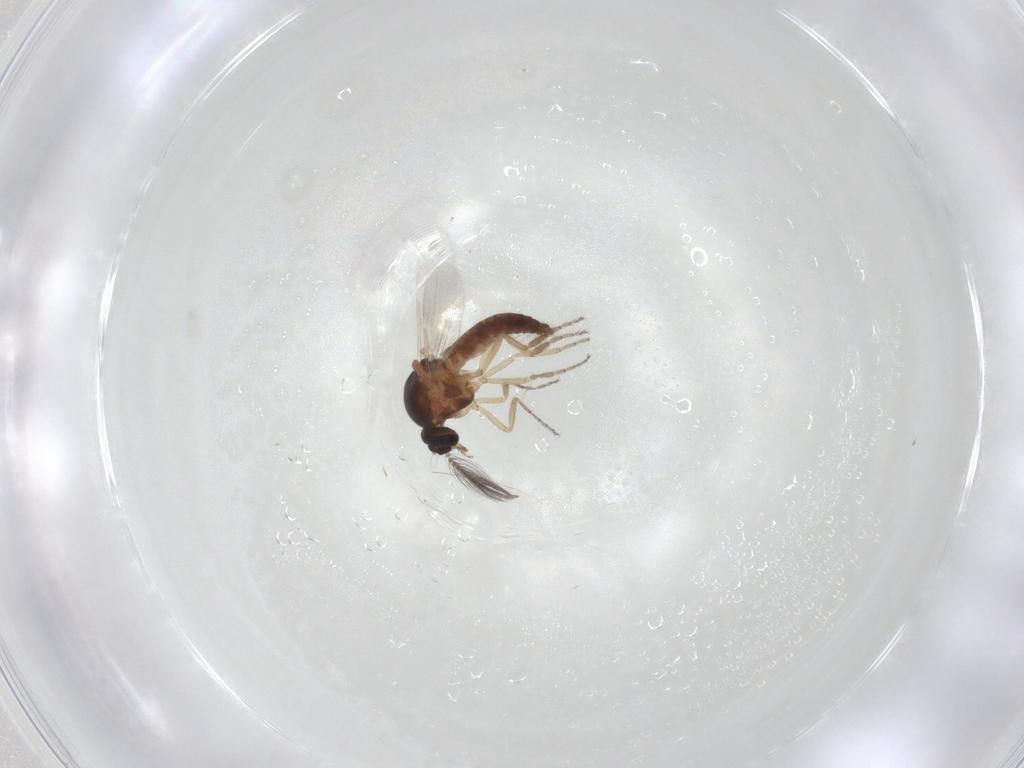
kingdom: Animalia
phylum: Arthropoda
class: Insecta
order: Diptera
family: Ceratopogonidae
